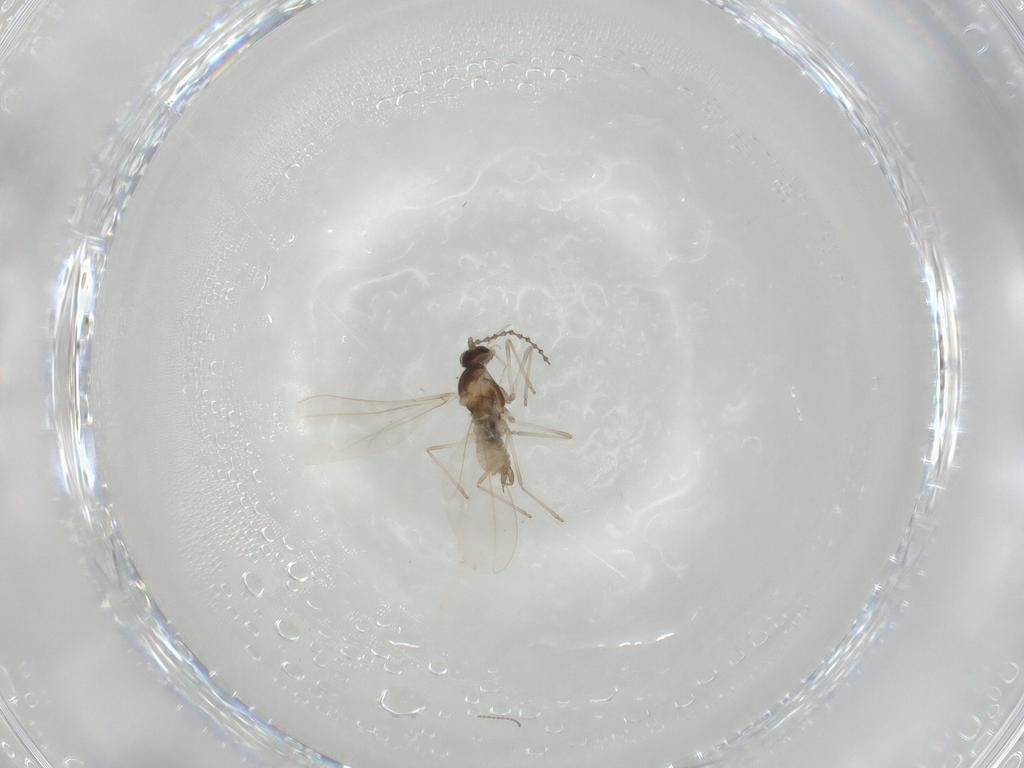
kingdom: Animalia
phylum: Arthropoda
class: Insecta
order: Diptera
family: Cecidomyiidae
